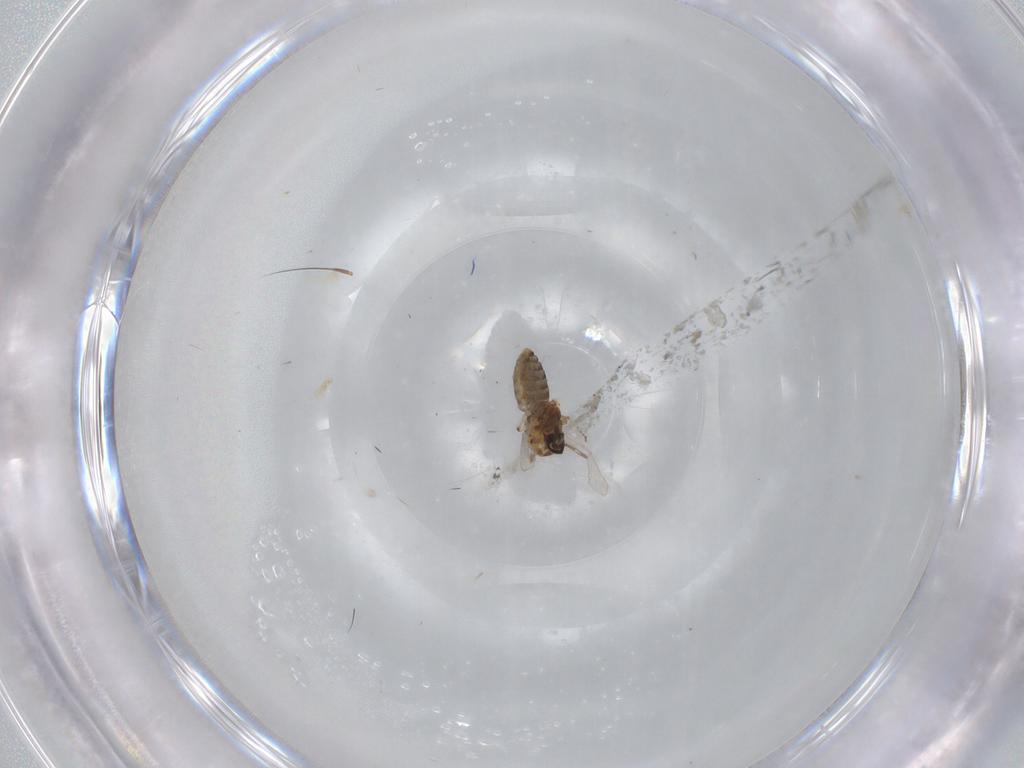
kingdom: Animalia
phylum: Arthropoda
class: Insecta
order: Diptera
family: Ceratopogonidae
